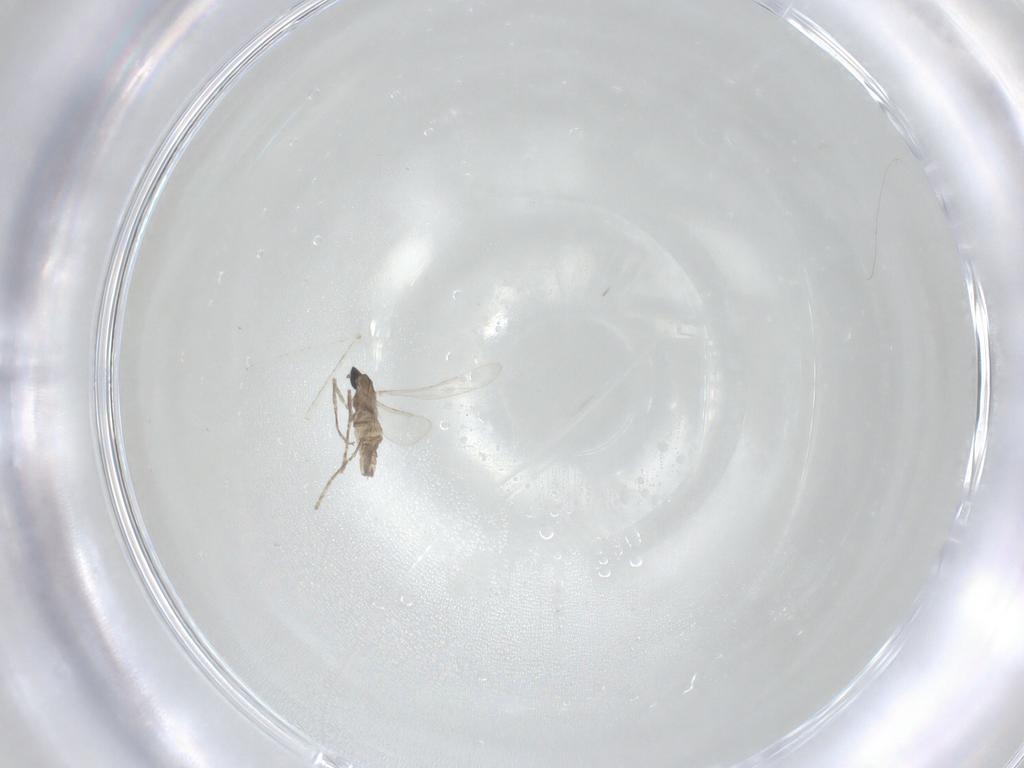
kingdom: Animalia
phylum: Arthropoda
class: Insecta
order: Diptera
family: Cecidomyiidae
